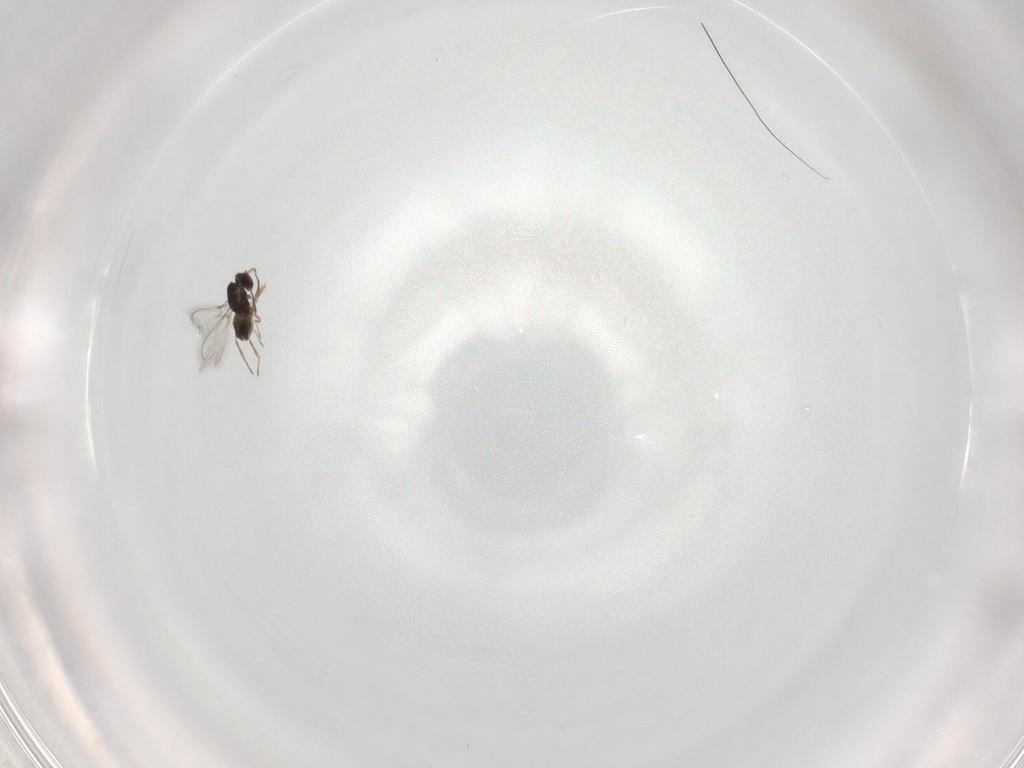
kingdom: Animalia
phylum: Arthropoda
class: Insecta
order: Hymenoptera
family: Mymaridae
